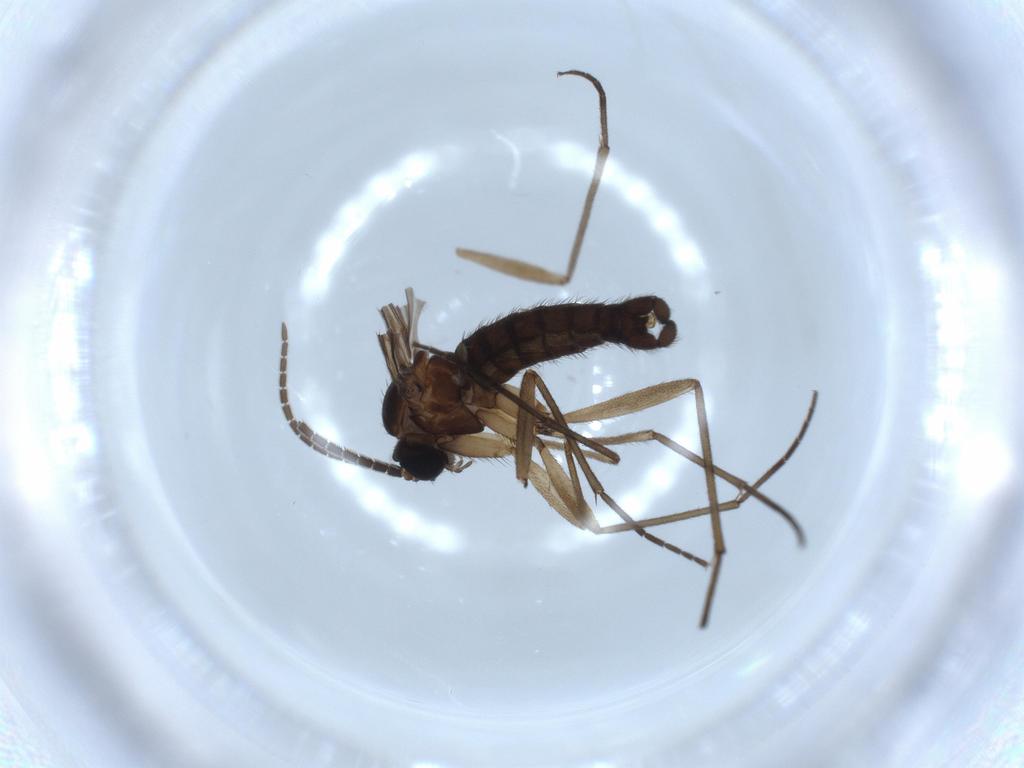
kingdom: Animalia
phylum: Arthropoda
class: Insecta
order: Diptera
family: Sciaridae
